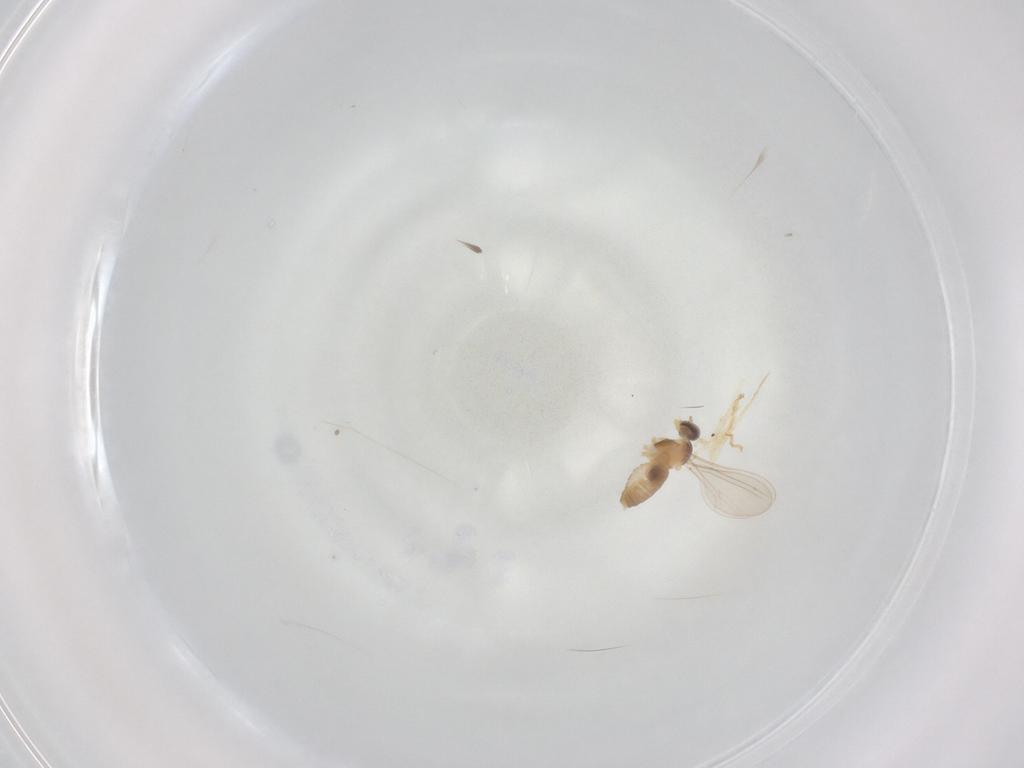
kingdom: Animalia
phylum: Arthropoda
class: Insecta
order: Diptera
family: Cecidomyiidae
